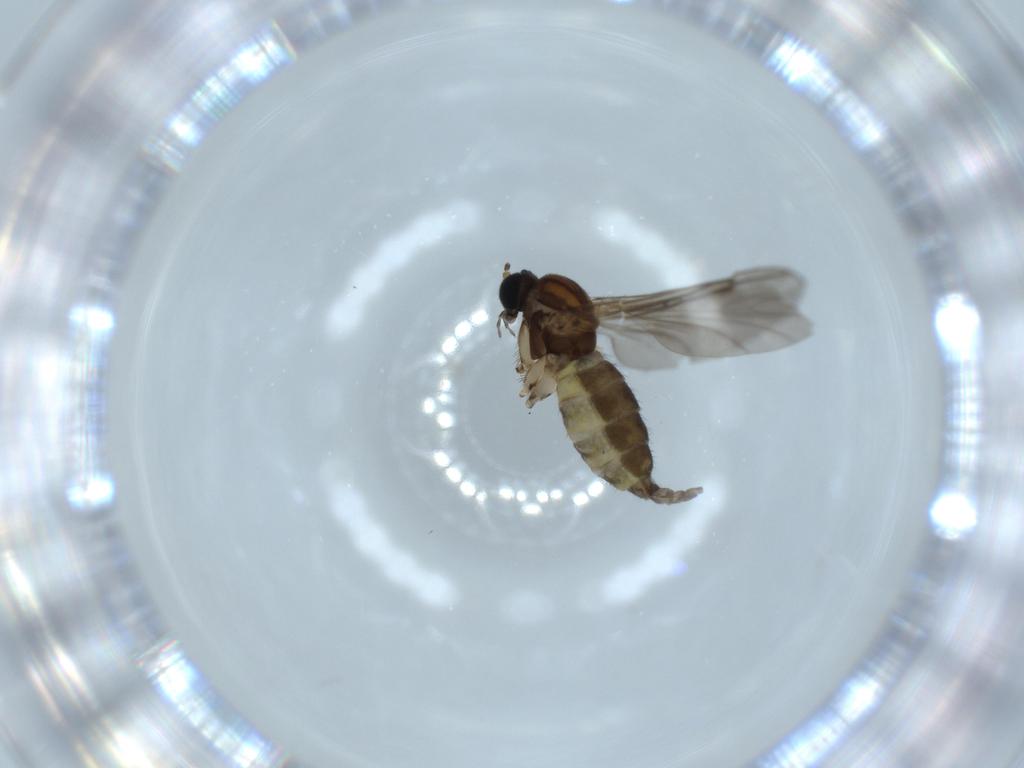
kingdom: Animalia
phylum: Arthropoda
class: Insecta
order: Diptera
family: Sciaridae
